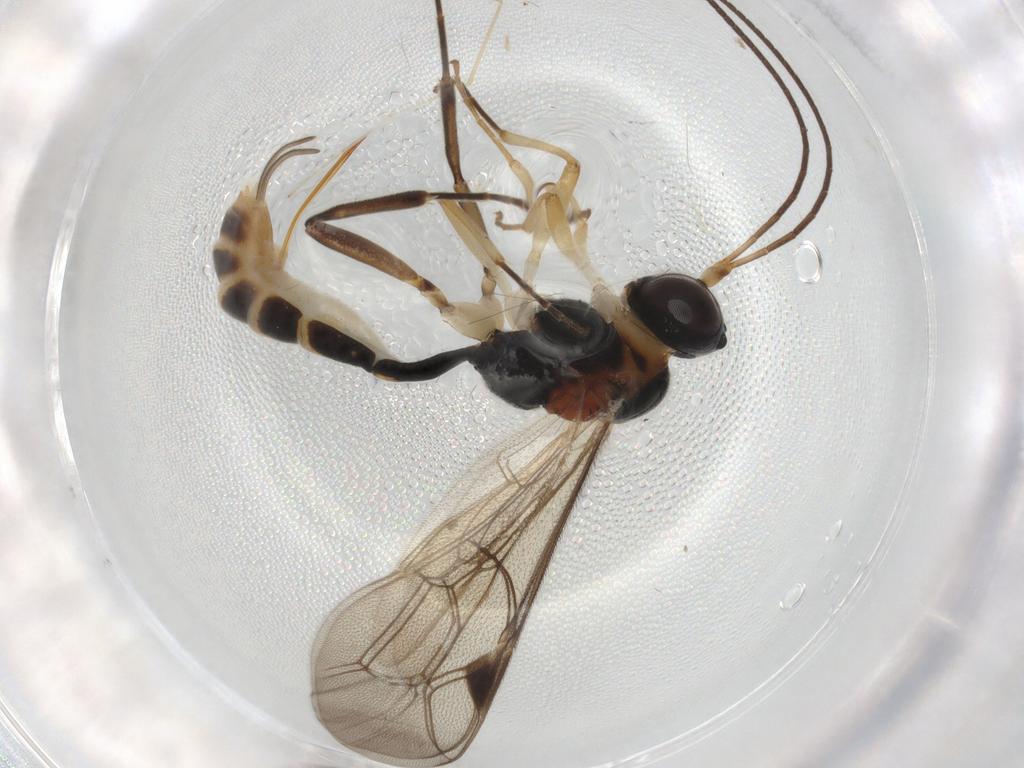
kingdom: Animalia
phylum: Arthropoda
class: Insecta
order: Hymenoptera
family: Ichneumonidae
